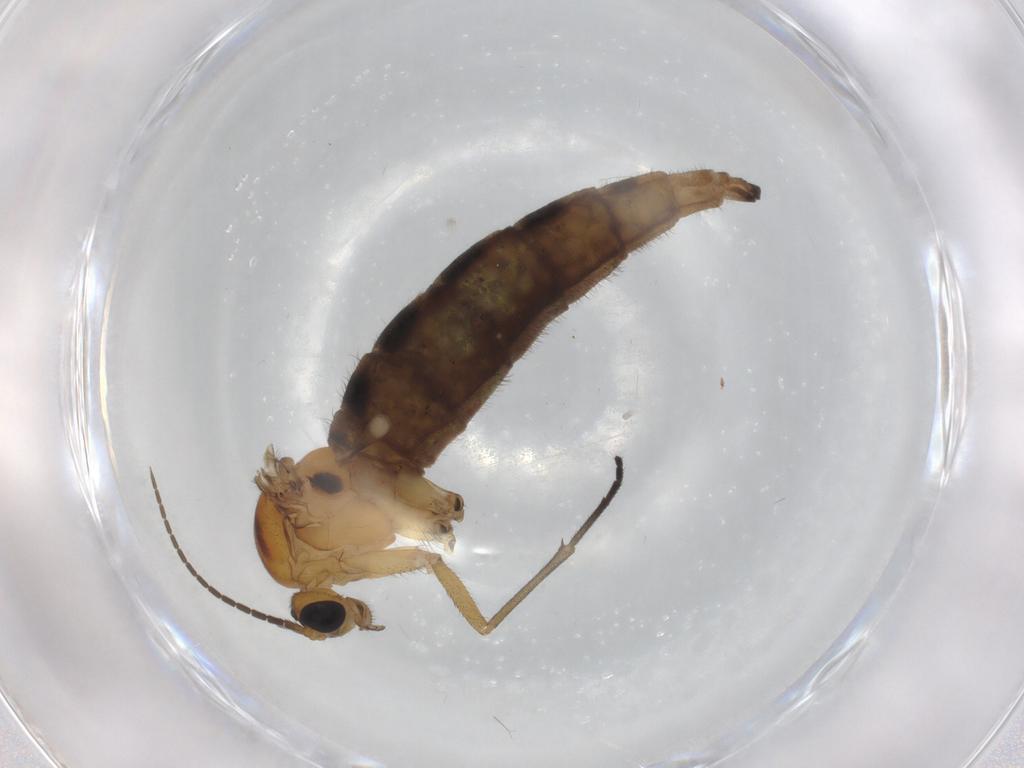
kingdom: Animalia
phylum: Arthropoda
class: Insecta
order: Diptera
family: Sciaridae
